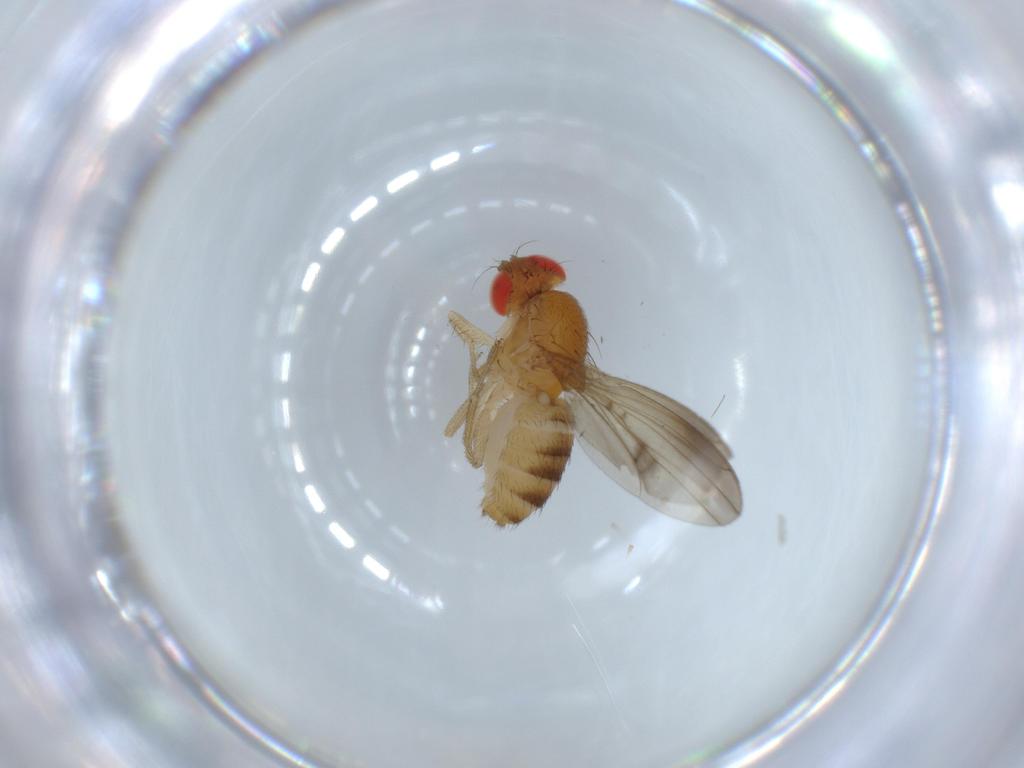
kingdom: Animalia
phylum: Arthropoda
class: Insecta
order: Diptera
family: Drosophilidae
